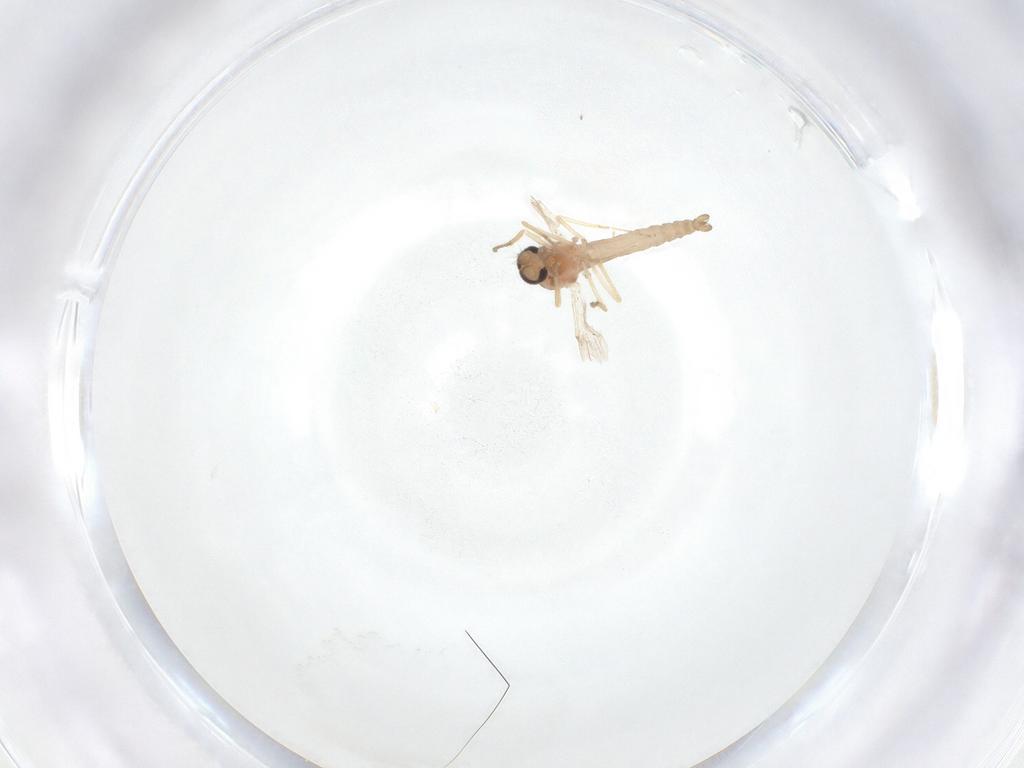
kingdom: Animalia
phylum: Arthropoda
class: Insecta
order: Diptera
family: Ceratopogonidae
